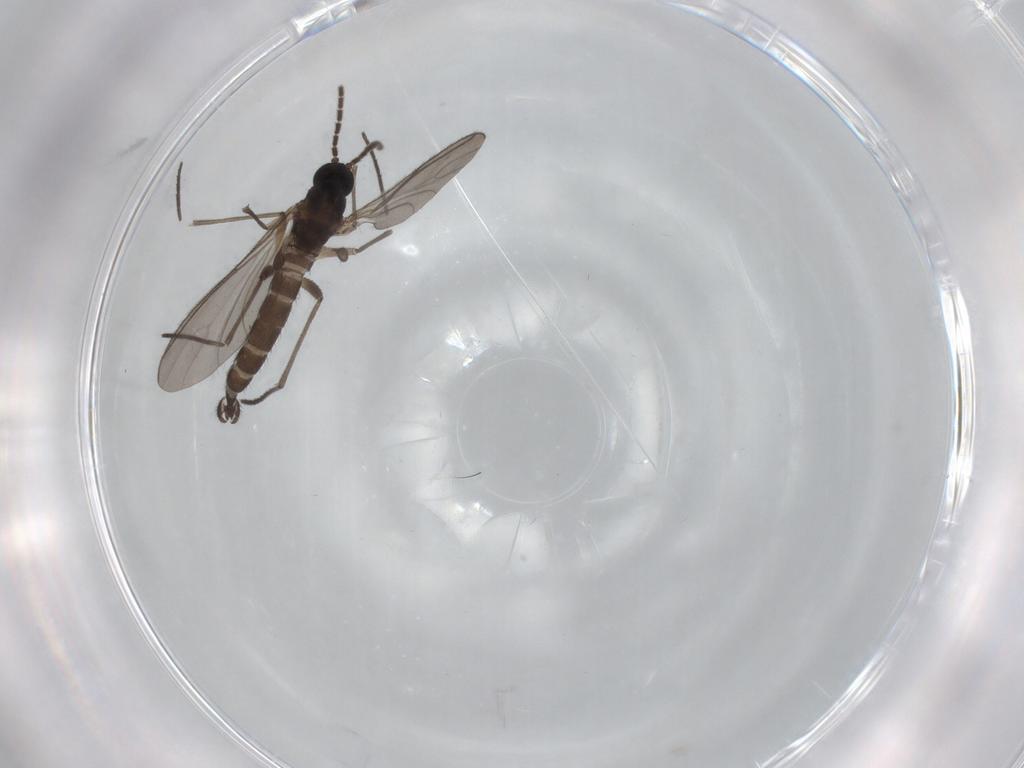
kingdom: Animalia
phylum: Arthropoda
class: Insecta
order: Diptera
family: Sciaridae
